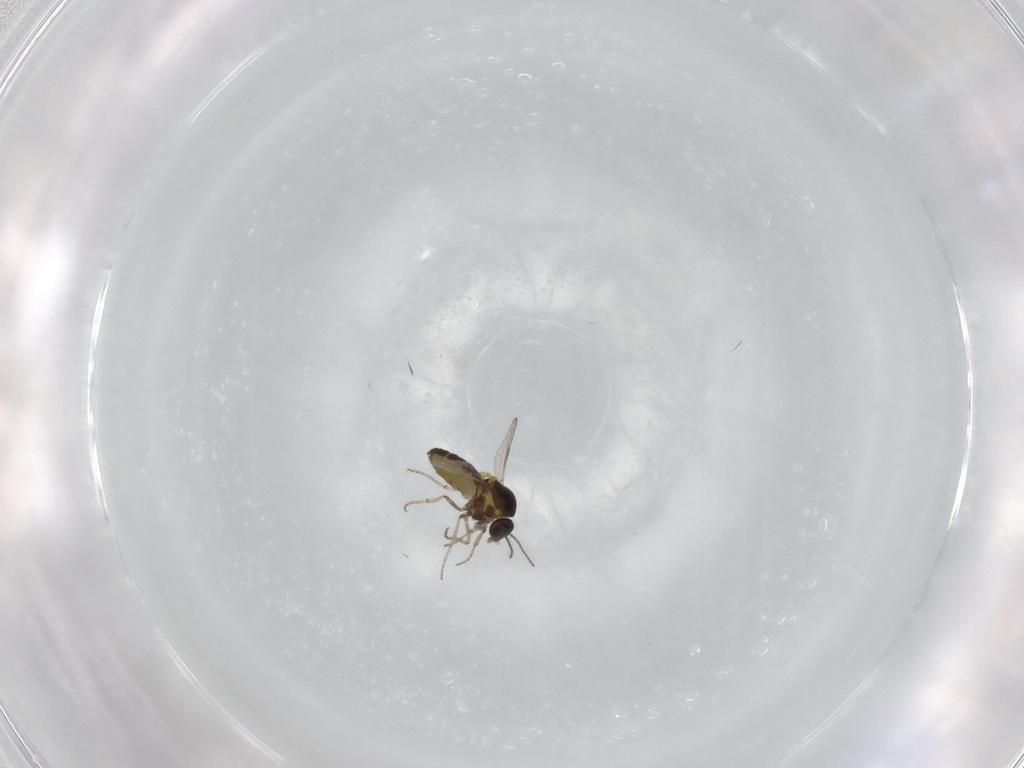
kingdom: Animalia
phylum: Arthropoda
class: Insecta
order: Diptera
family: Ceratopogonidae
